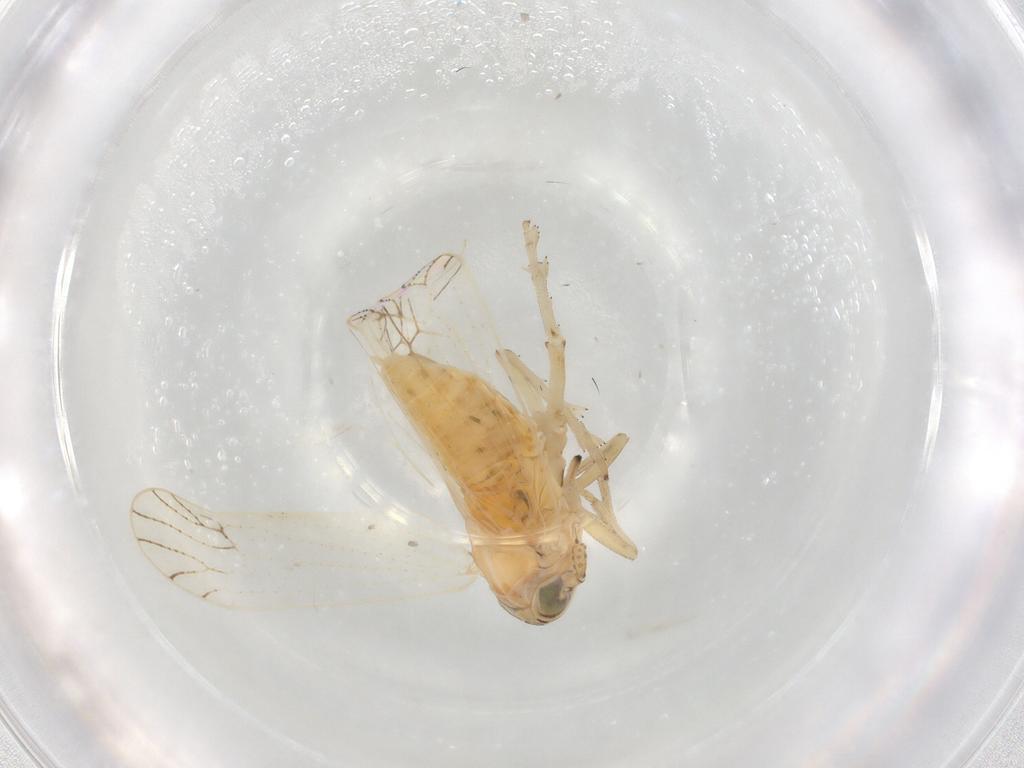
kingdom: Animalia
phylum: Arthropoda
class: Insecta
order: Hemiptera
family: Delphacidae
